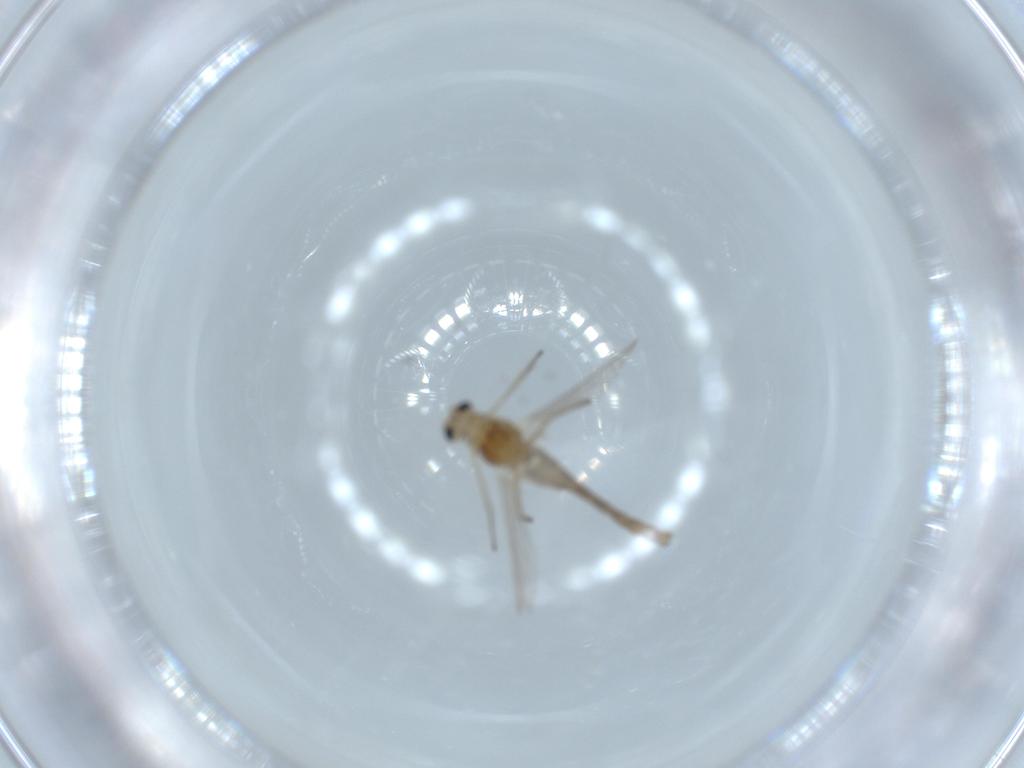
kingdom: Animalia
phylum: Arthropoda
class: Insecta
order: Diptera
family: Chironomidae
